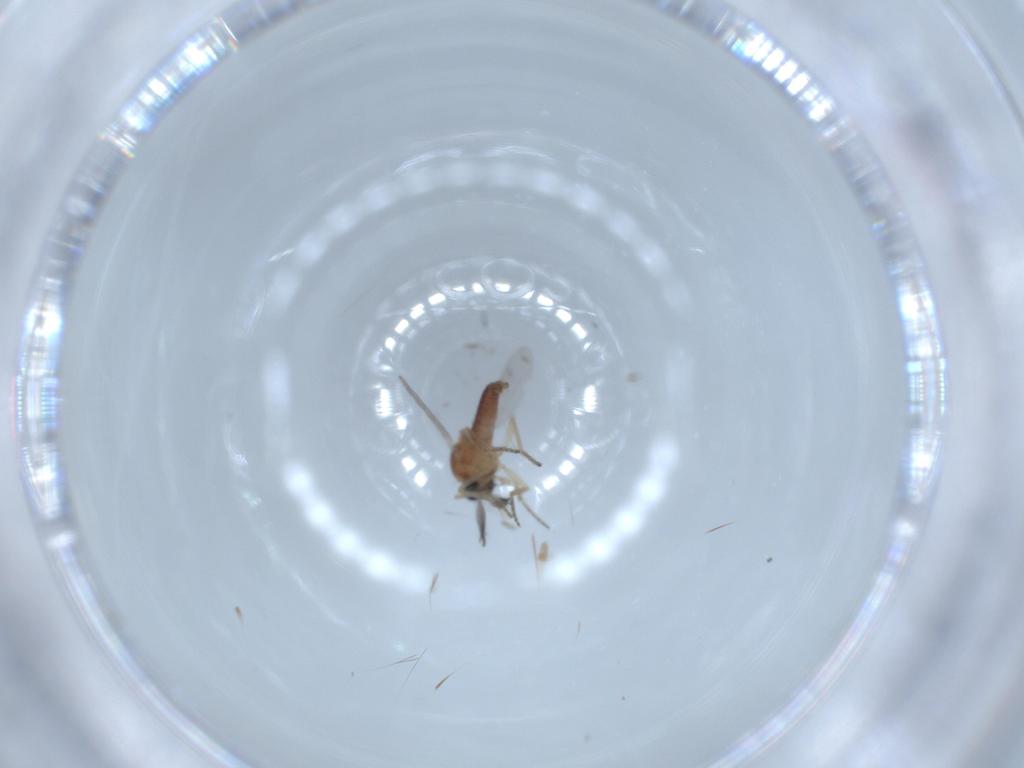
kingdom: Animalia
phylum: Arthropoda
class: Insecta
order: Diptera
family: Ceratopogonidae
